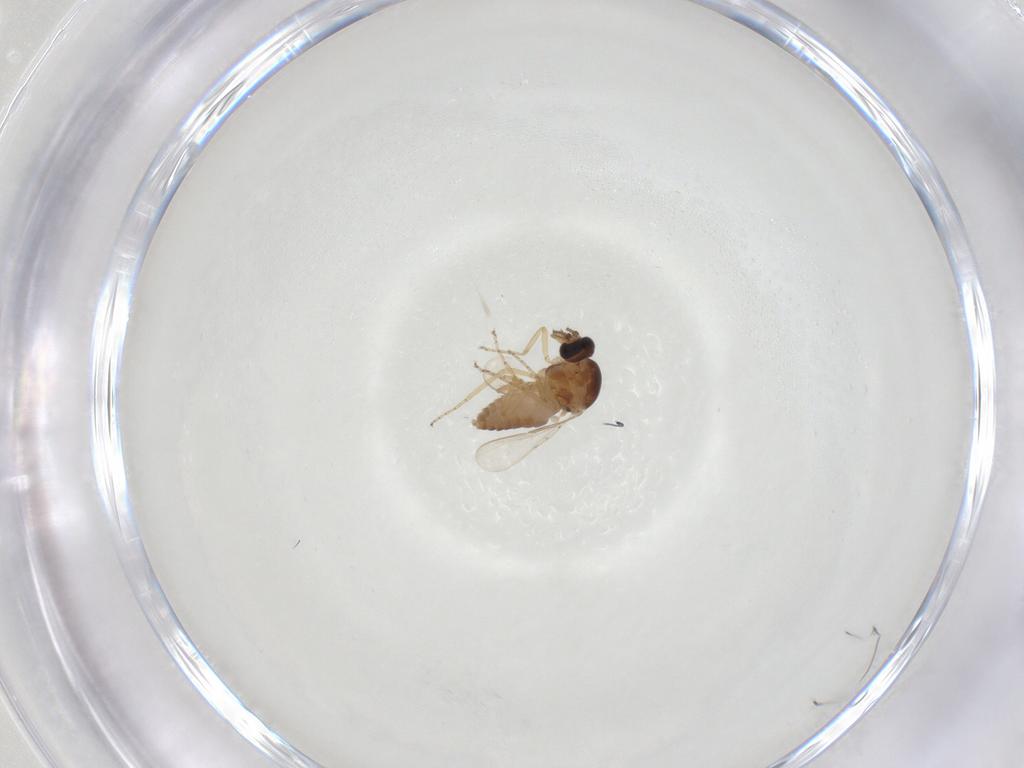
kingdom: Animalia
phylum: Arthropoda
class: Insecta
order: Diptera
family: Ceratopogonidae
